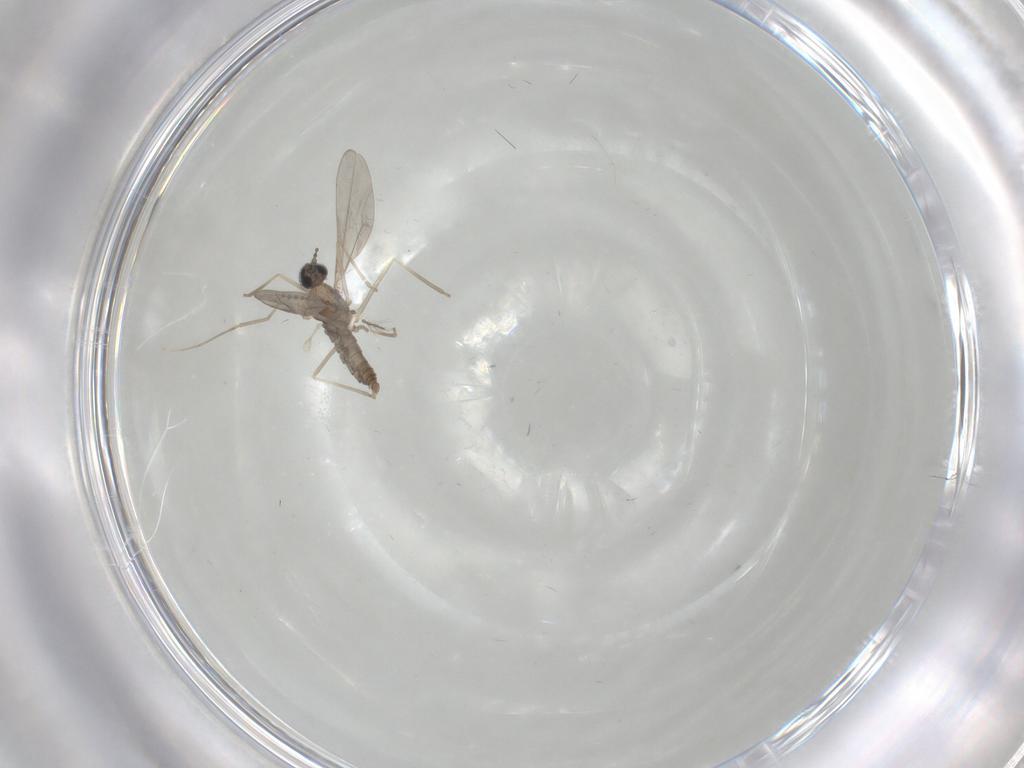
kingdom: Animalia
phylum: Arthropoda
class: Insecta
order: Diptera
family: Cecidomyiidae
